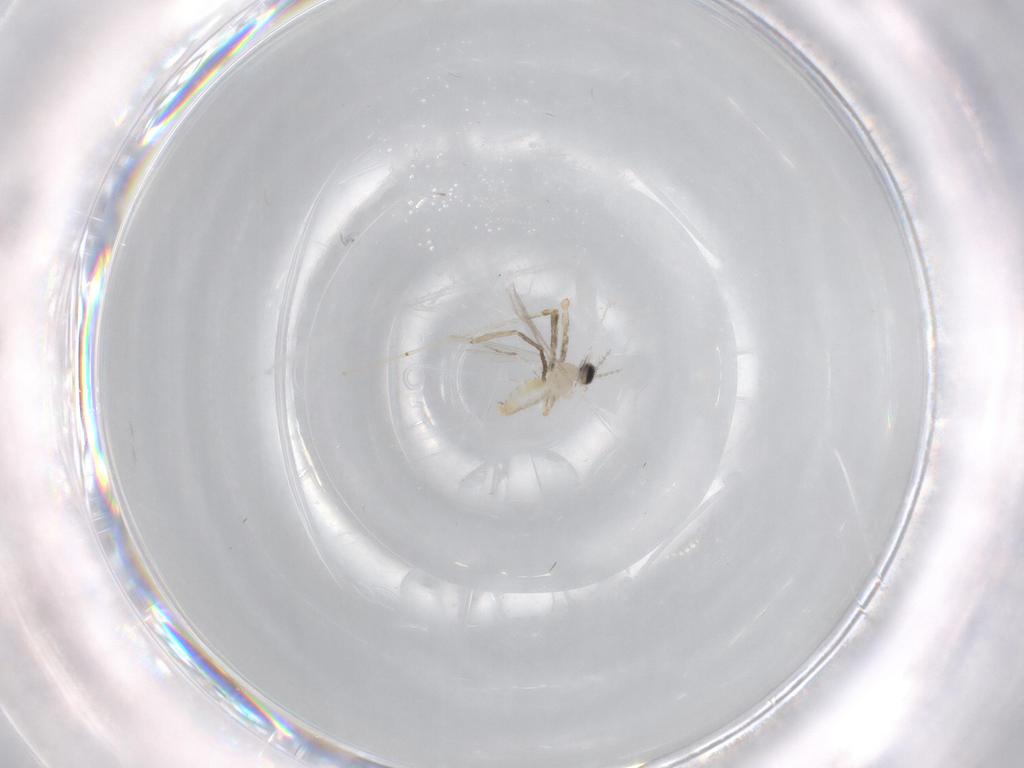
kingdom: Animalia
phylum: Arthropoda
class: Insecta
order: Diptera
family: Cecidomyiidae
